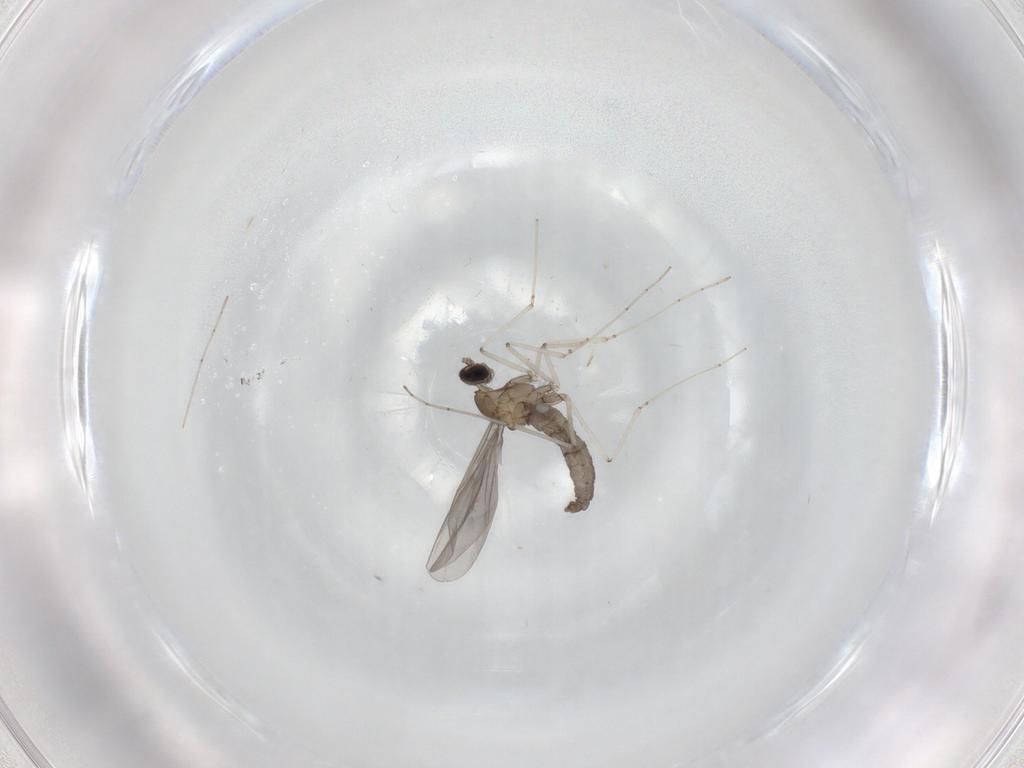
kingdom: Animalia
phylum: Arthropoda
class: Insecta
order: Diptera
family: Cecidomyiidae
